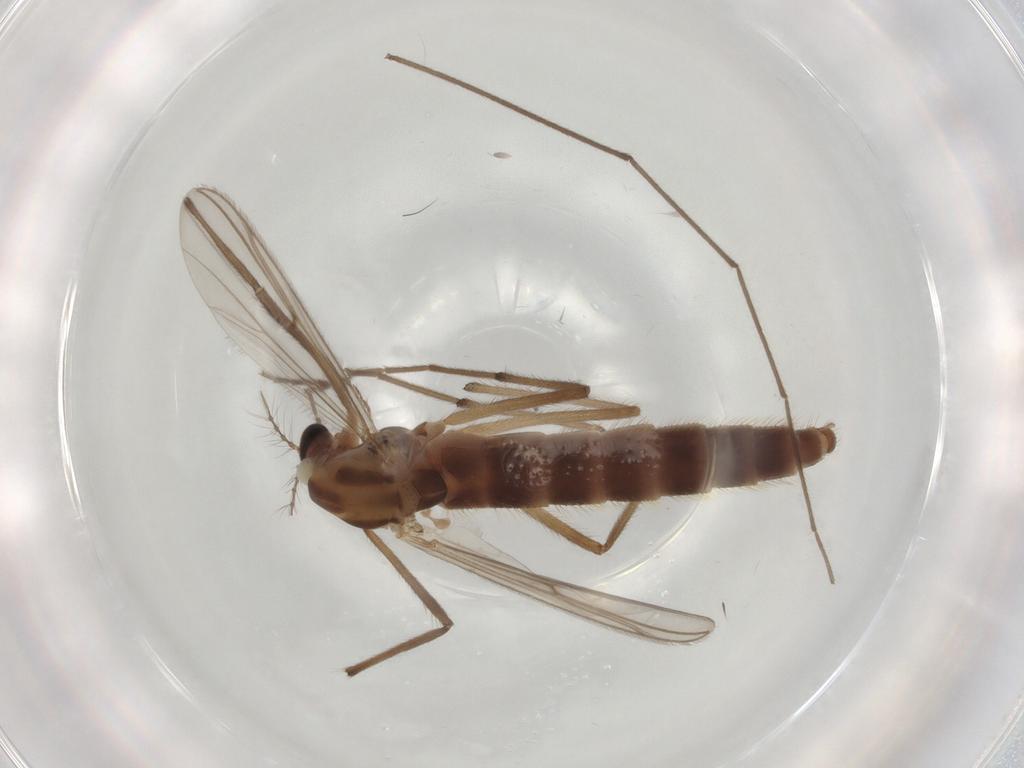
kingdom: Animalia
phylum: Arthropoda
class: Insecta
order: Diptera
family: Chironomidae
